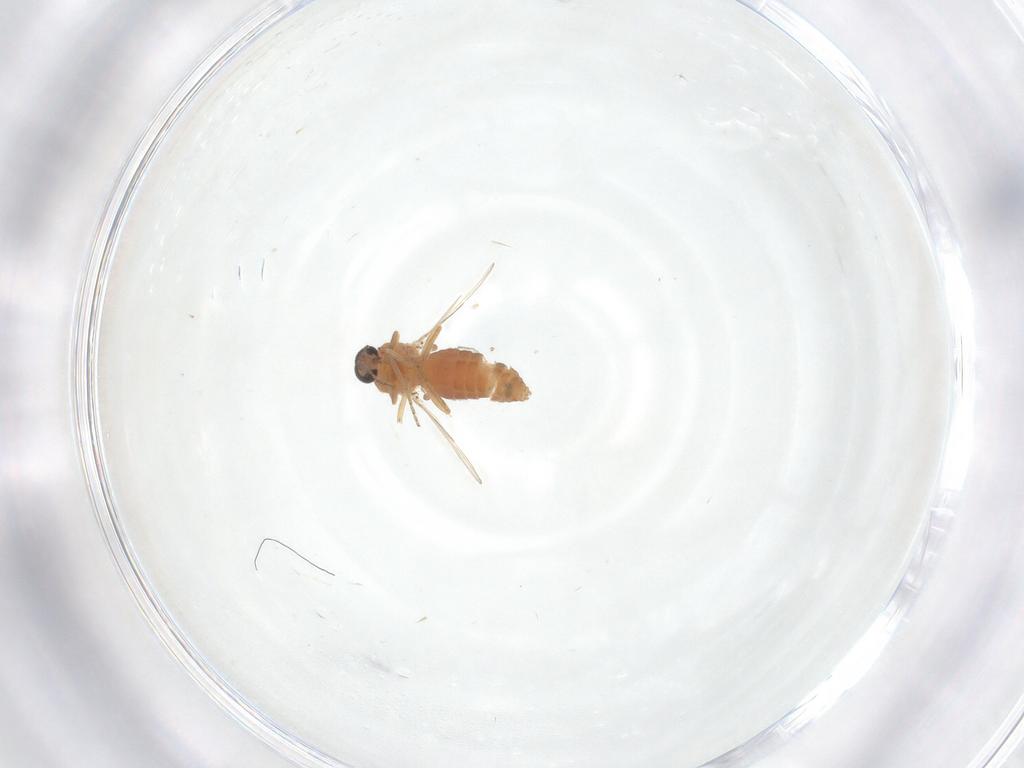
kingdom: Animalia
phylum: Arthropoda
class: Insecta
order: Diptera
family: Ceratopogonidae
